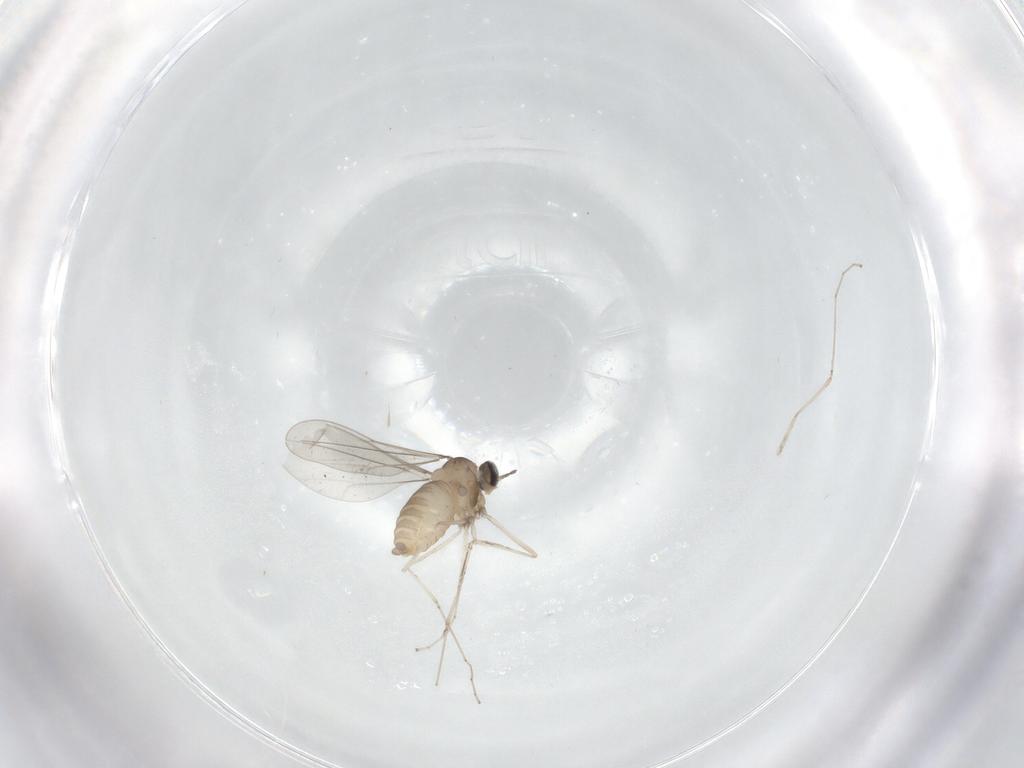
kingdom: Animalia
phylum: Arthropoda
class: Insecta
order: Diptera
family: Cecidomyiidae
